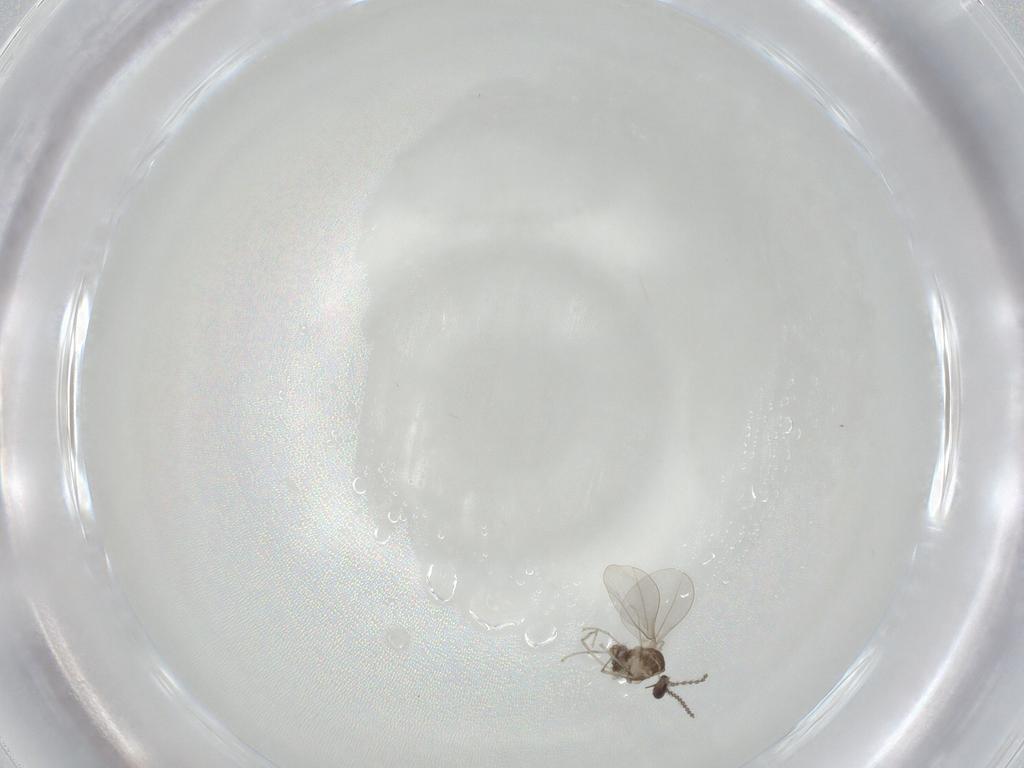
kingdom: Animalia
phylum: Arthropoda
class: Insecta
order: Diptera
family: Cecidomyiidae
